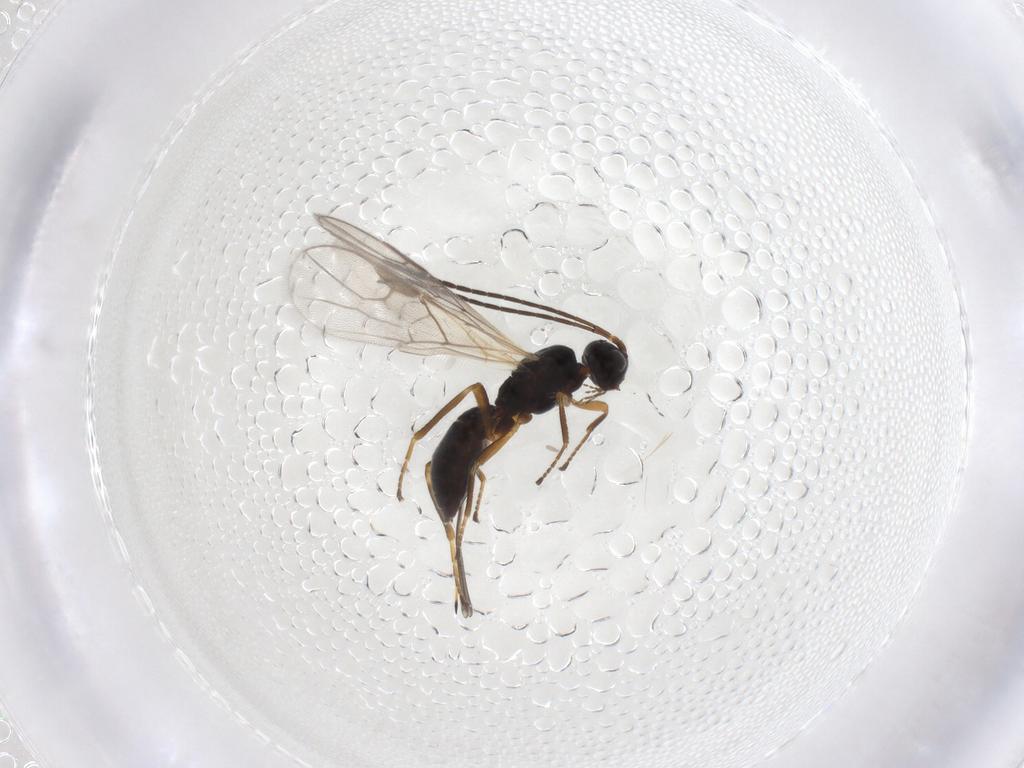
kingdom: Animalia
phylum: Arthropoda
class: Insecta
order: Hymenoptera
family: Braconidae
